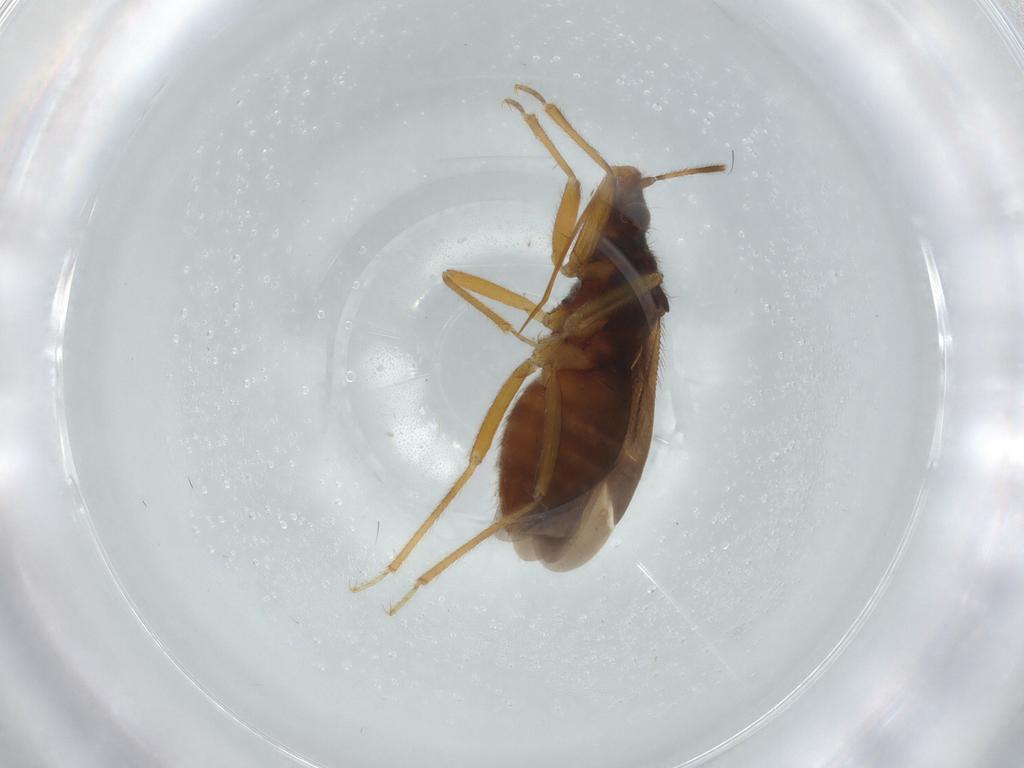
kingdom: Animalia
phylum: Arthropoda
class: Insecta
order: Hemiptera
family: Anthocoridae
